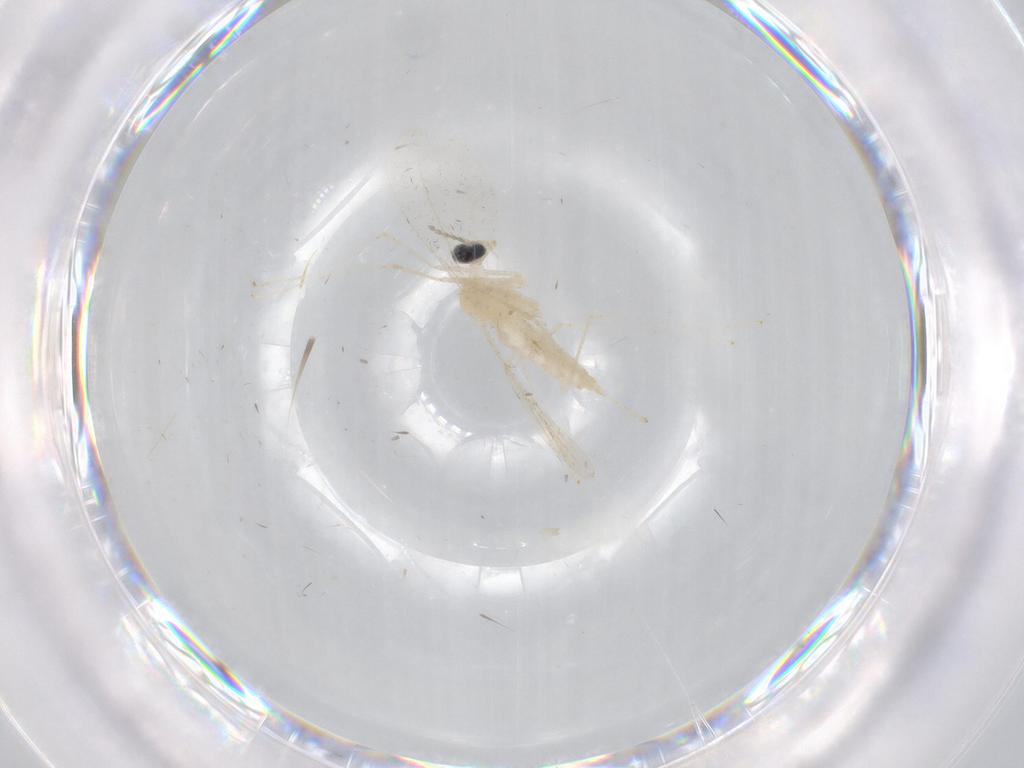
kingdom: Animalia
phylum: Arthropoda
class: Insecta
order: Diptera
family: Cecidomyiidae
